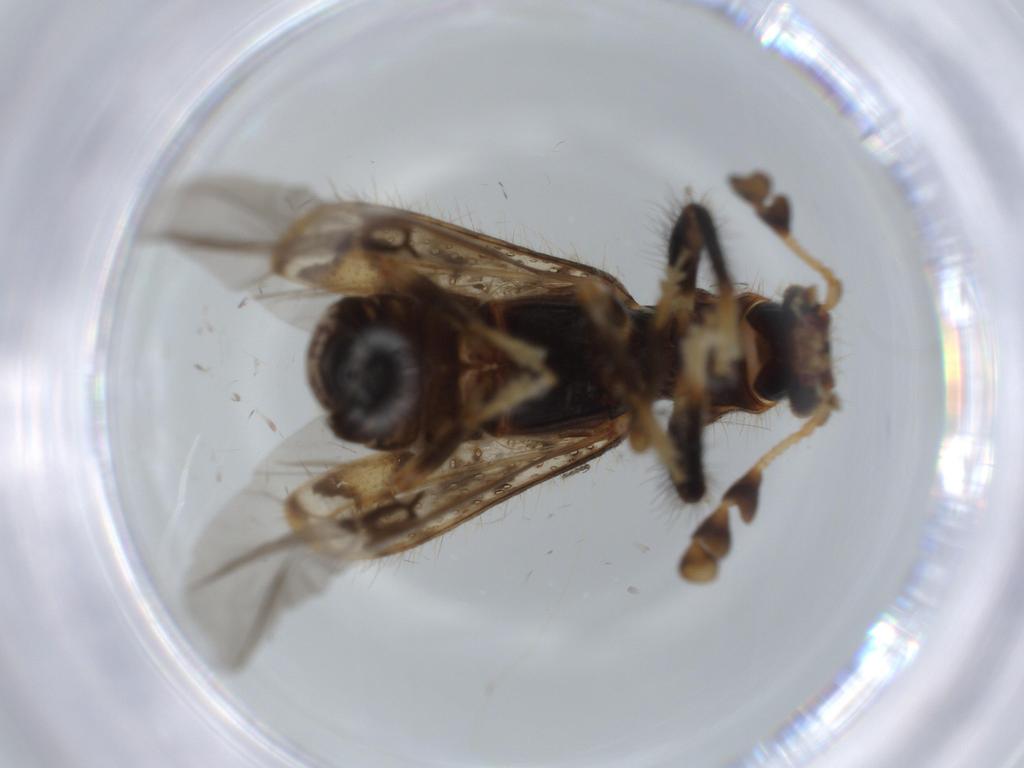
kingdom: Animalia
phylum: Arthropoda
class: Insecta
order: Coleoptera
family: Cleridae
